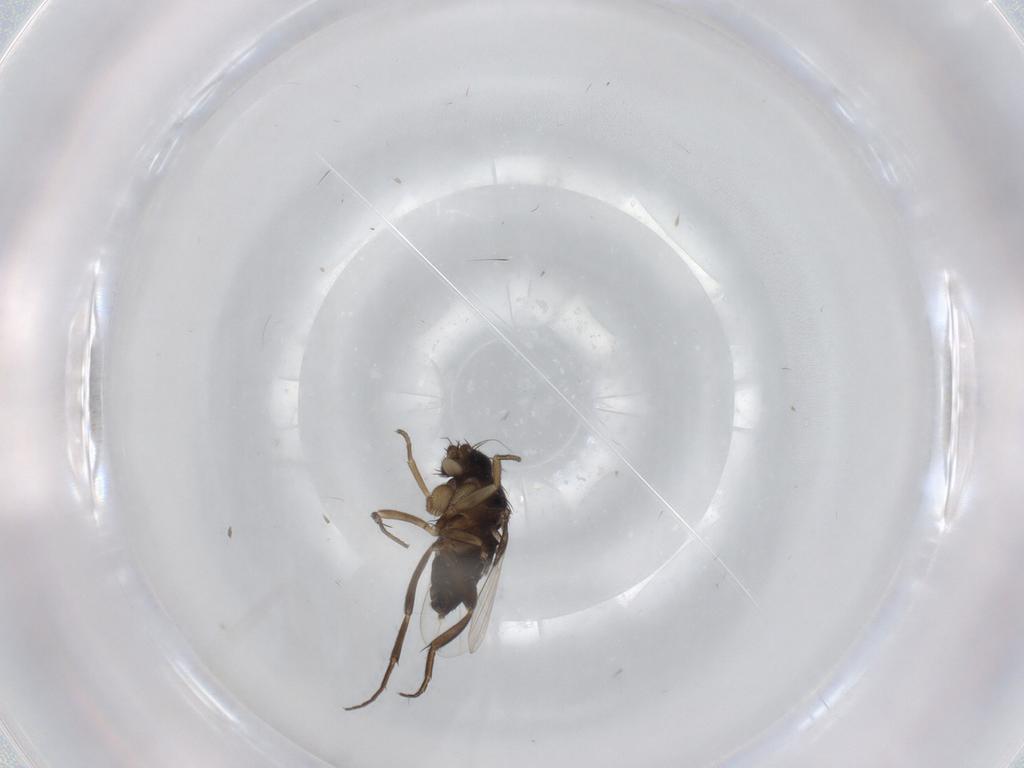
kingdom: Animalia
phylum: Arthropoda
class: Insecta
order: Diptera
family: Phoridae
